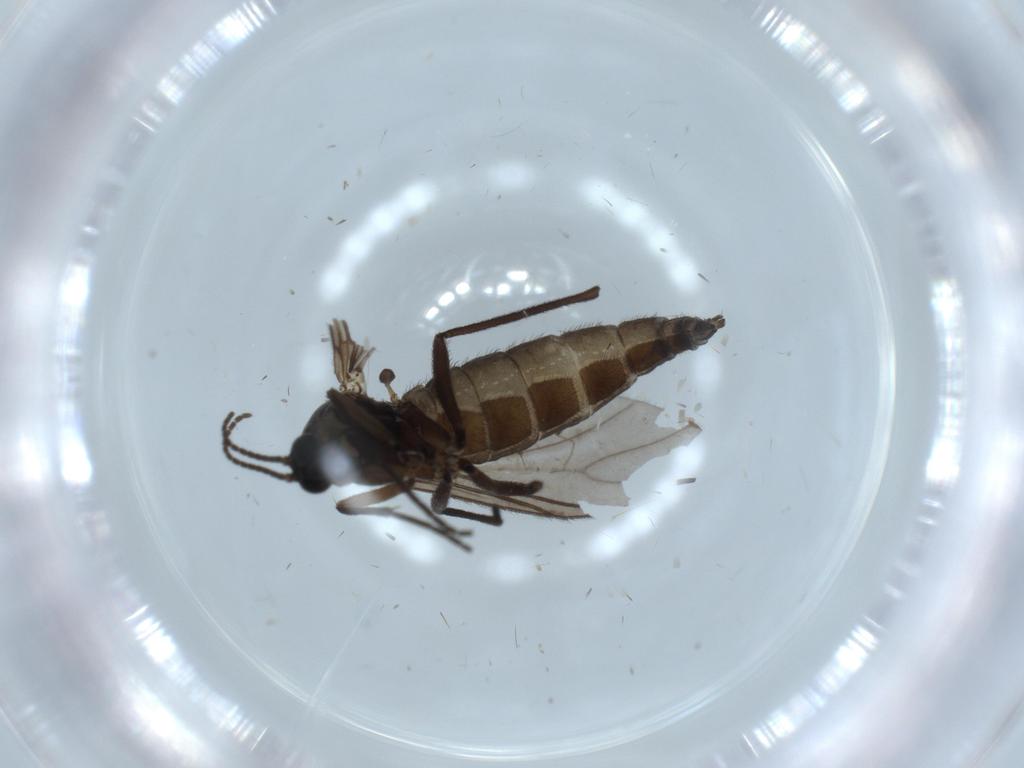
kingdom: Animalia
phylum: Arthropoda
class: Insecta
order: Diptera
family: Sciaridae
